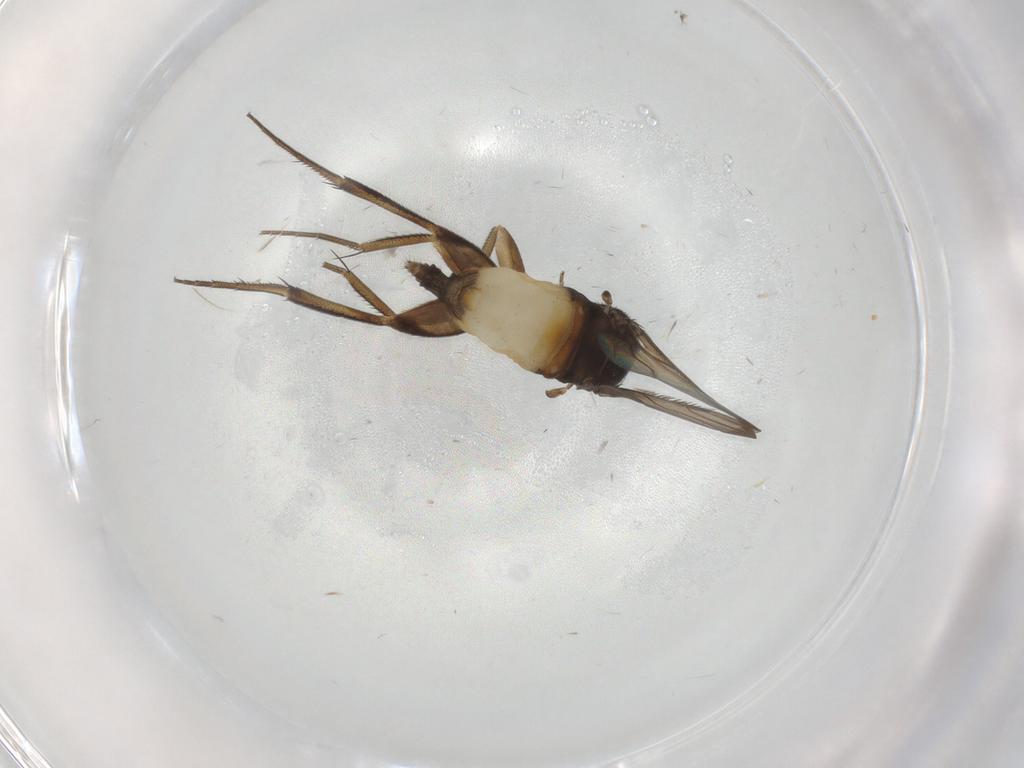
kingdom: Animalia
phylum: Arthropoda
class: Insecta
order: Diptera
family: Phoridae
